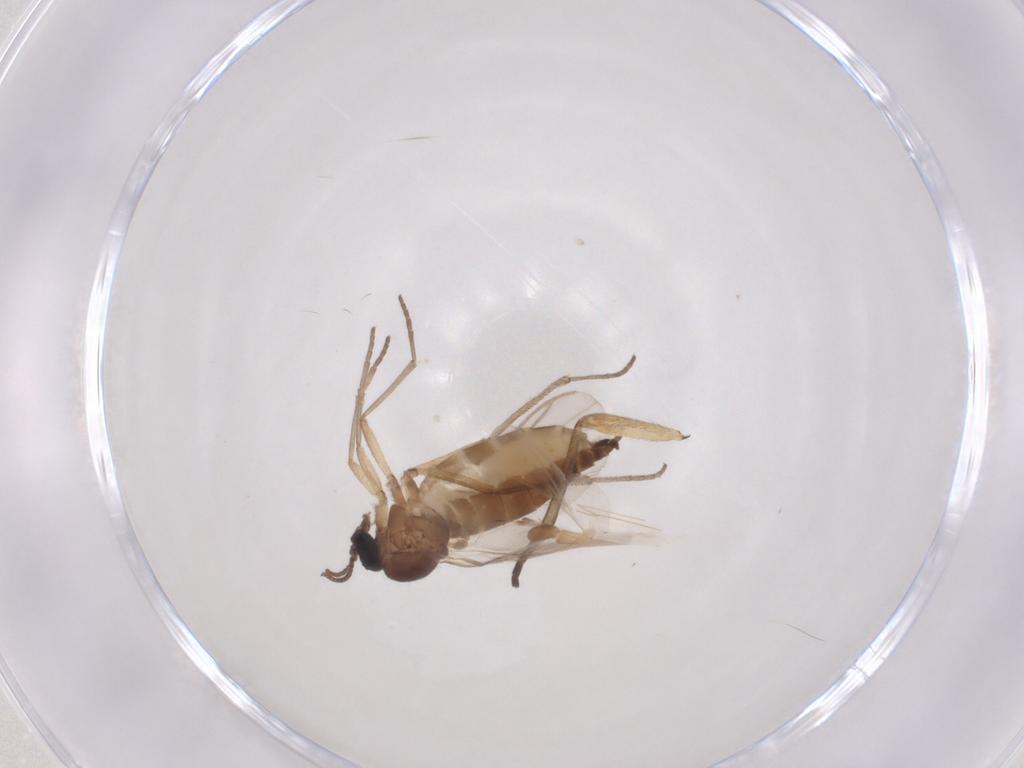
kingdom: Animalia
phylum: Arthropoda
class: Insecta
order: Diptera
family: Sciaridae
